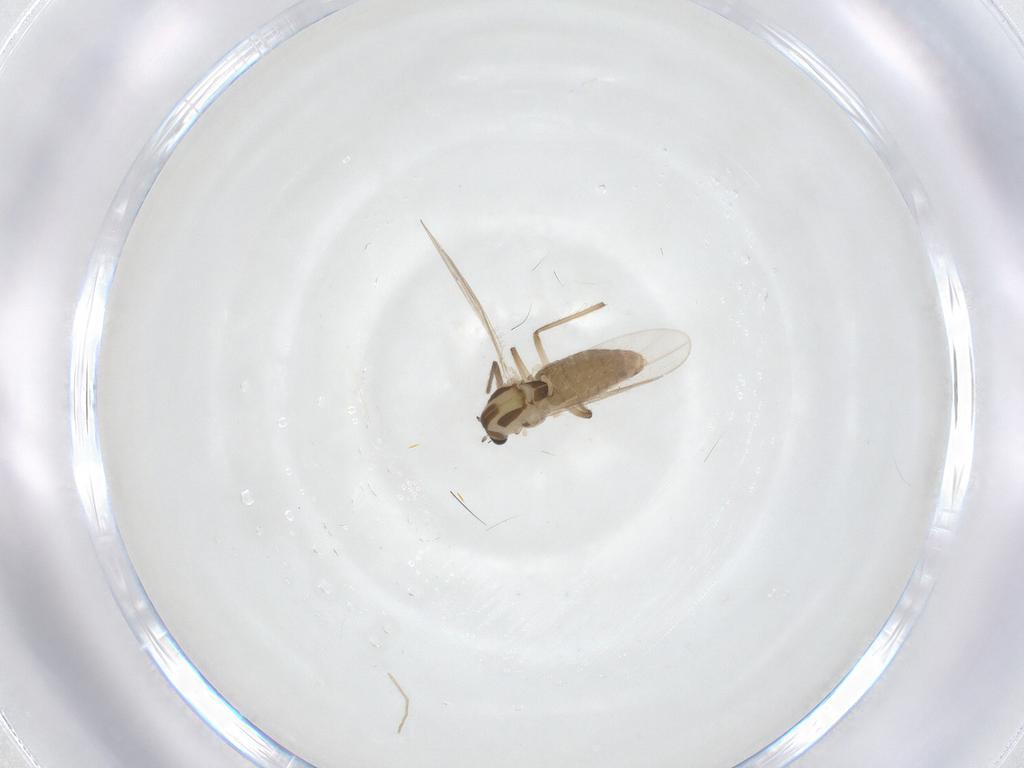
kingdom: Animalia
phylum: Arthropoda
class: Insecta
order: Diptera
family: Chironomidae
